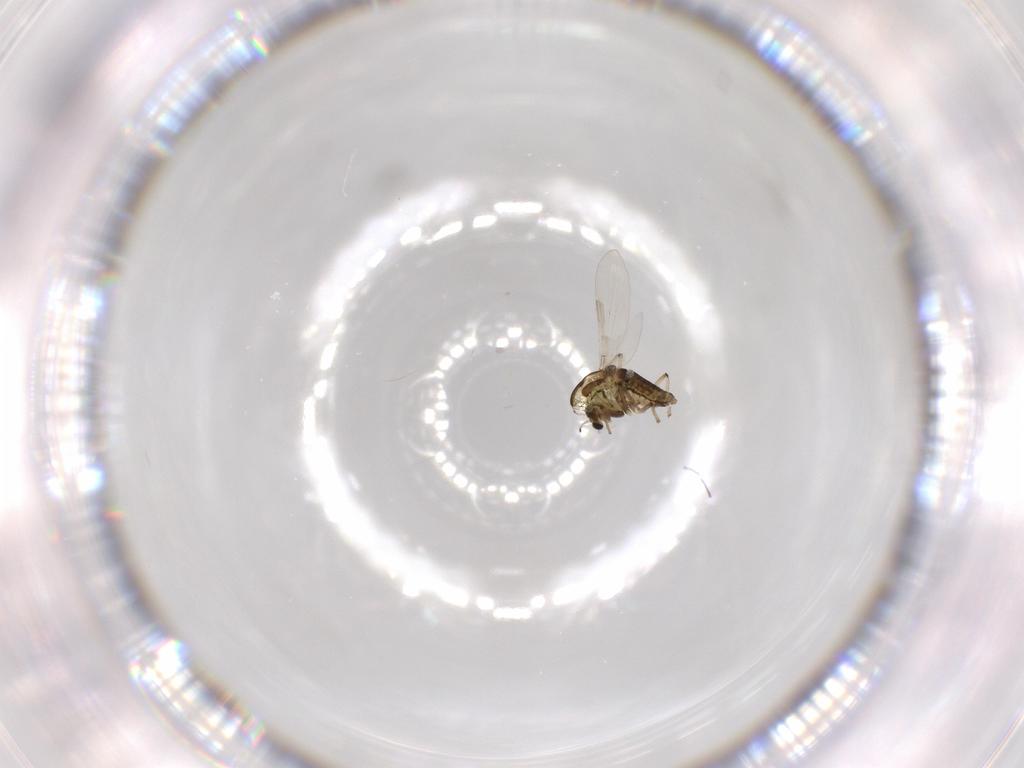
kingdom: Animalia
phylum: Arthropoda
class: Insecta
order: Diptera
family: Chironomidae
